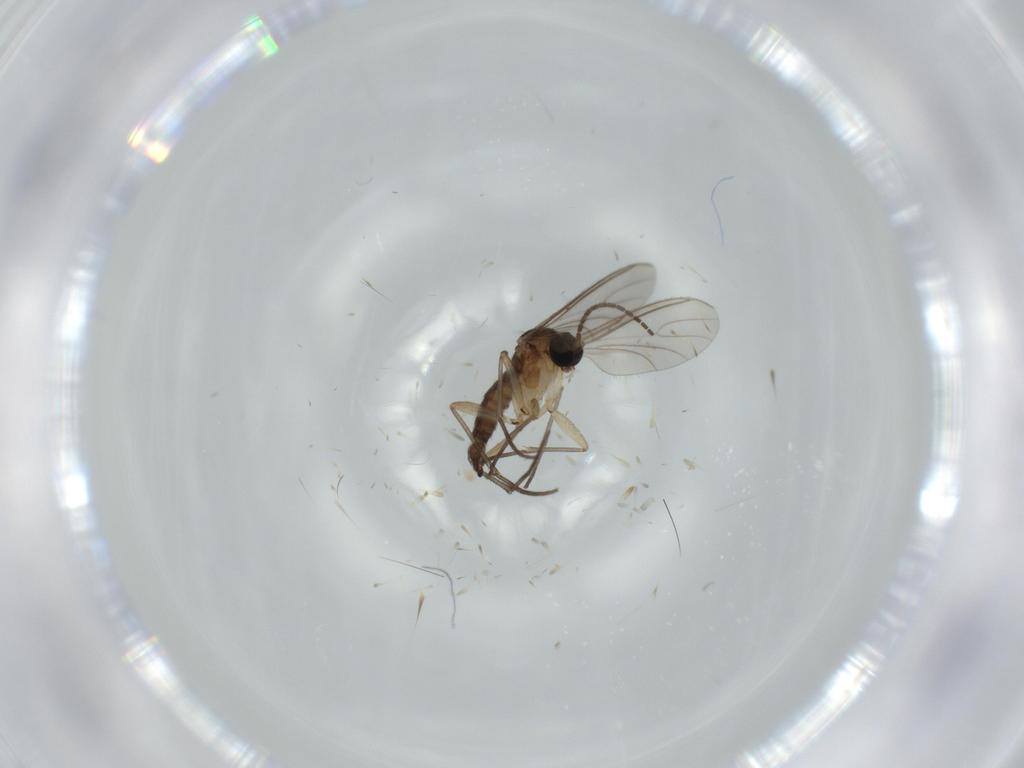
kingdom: Animalia
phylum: Arthropoda
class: Insecta
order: Diptera
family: Sciaridae
